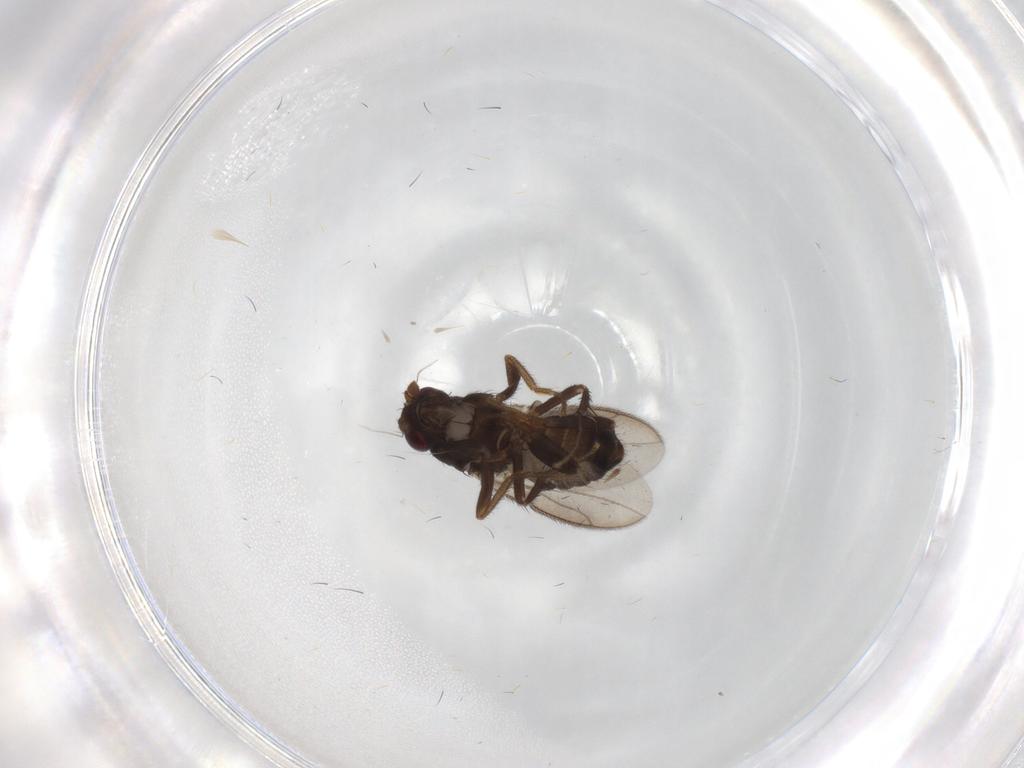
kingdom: Animalia
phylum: Arthropoda
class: Insecta
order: Diptera
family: Sphaeroceridae
